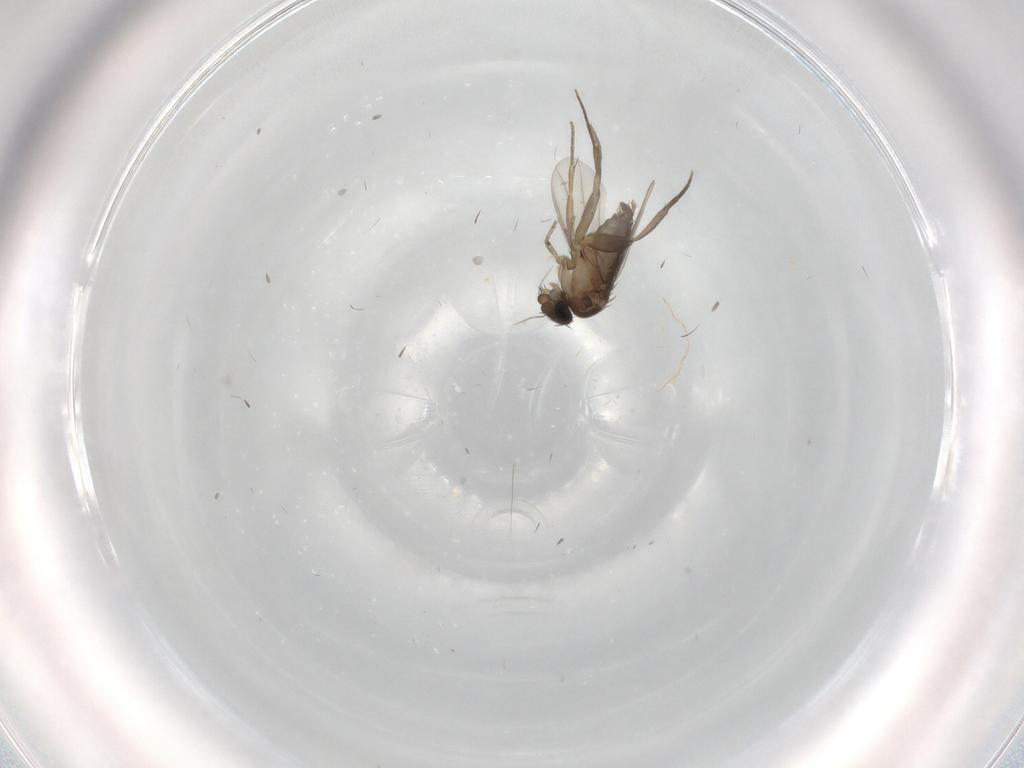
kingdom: Animalia
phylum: Arthropoda
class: Insecta
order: Diptera
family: Phoridae
